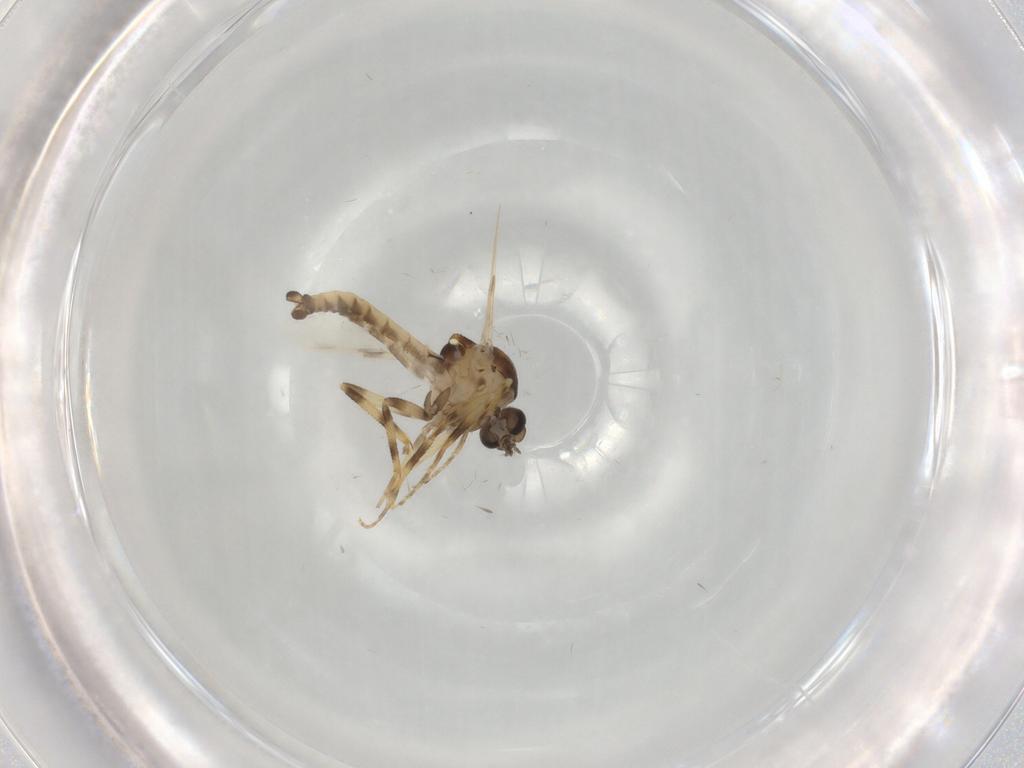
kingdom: Animalia
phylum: Arthropoda
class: Insecta
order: Diptera
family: Ceratopogonidae
